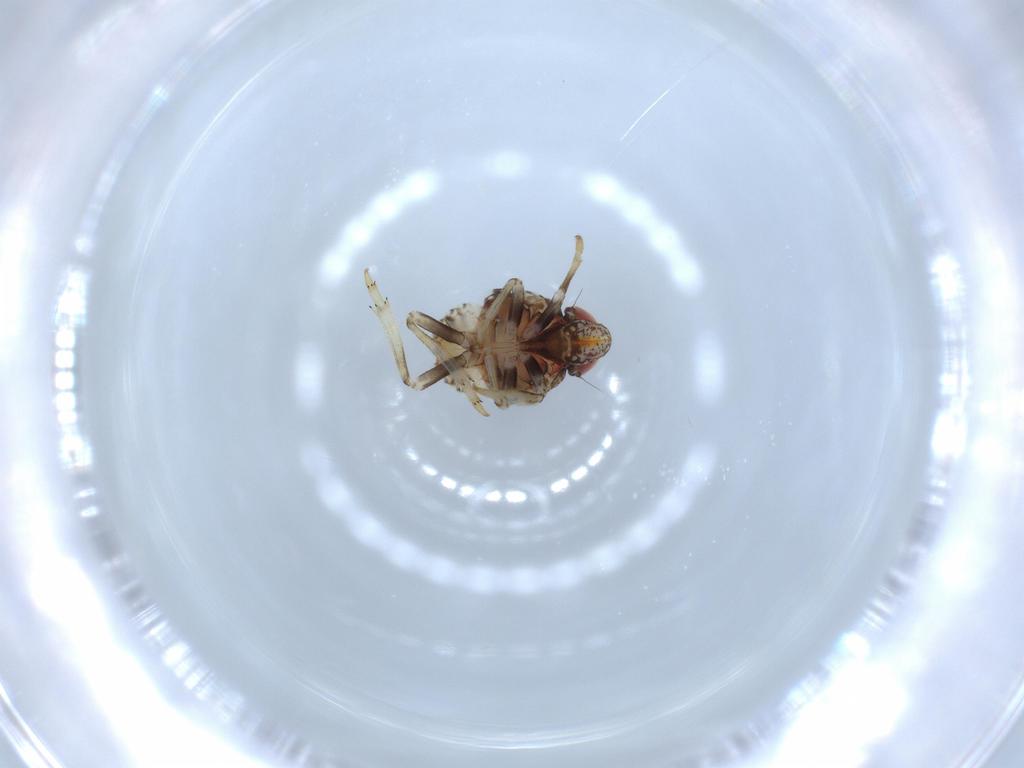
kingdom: Animalia
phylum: Arthropoda
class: Insecta
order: Hemiptera
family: Issidae
